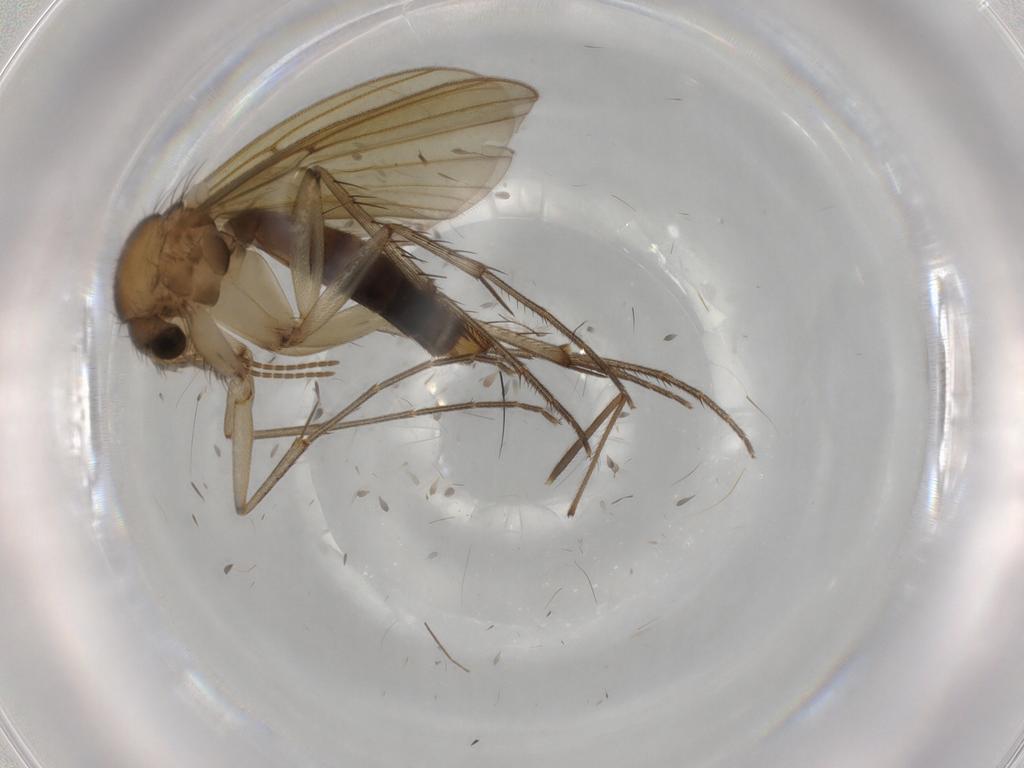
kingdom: Animalia
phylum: Arthropoda
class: Insecta
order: Diptera
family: Mycetophilidae
